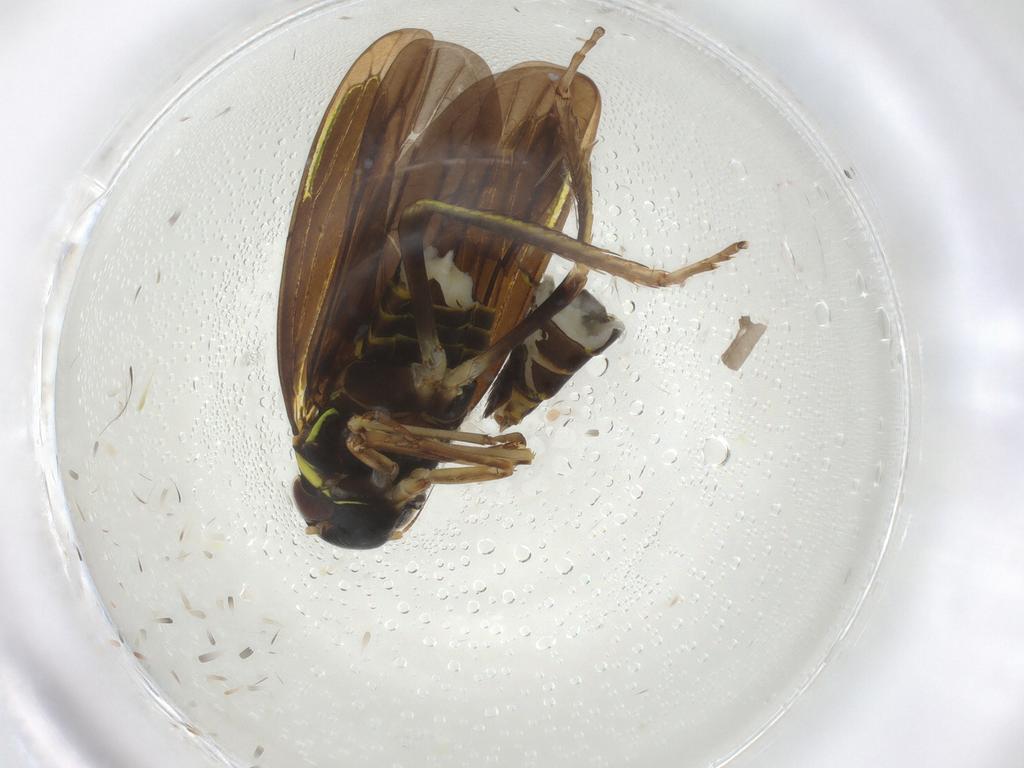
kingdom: Animalia
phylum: Arthropoda
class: Insecta
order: Hemiptera
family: Cicadellidae
